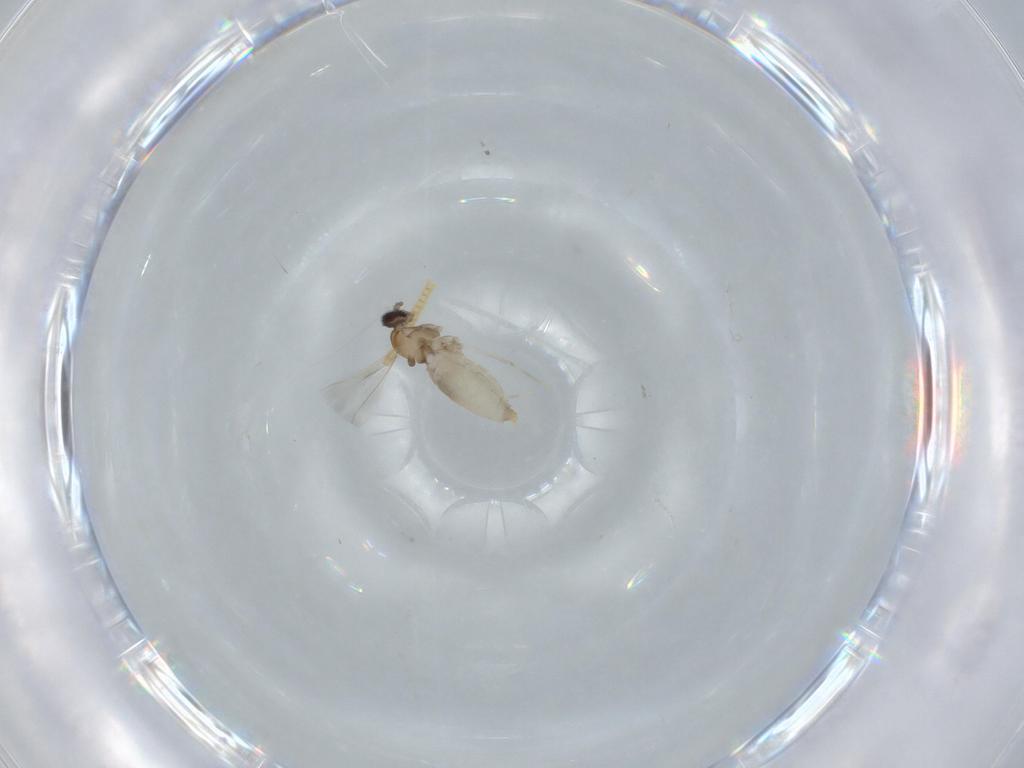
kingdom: Animalia
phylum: Arthropoda
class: Insecta
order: Diptera
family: Cecidomyiidae
